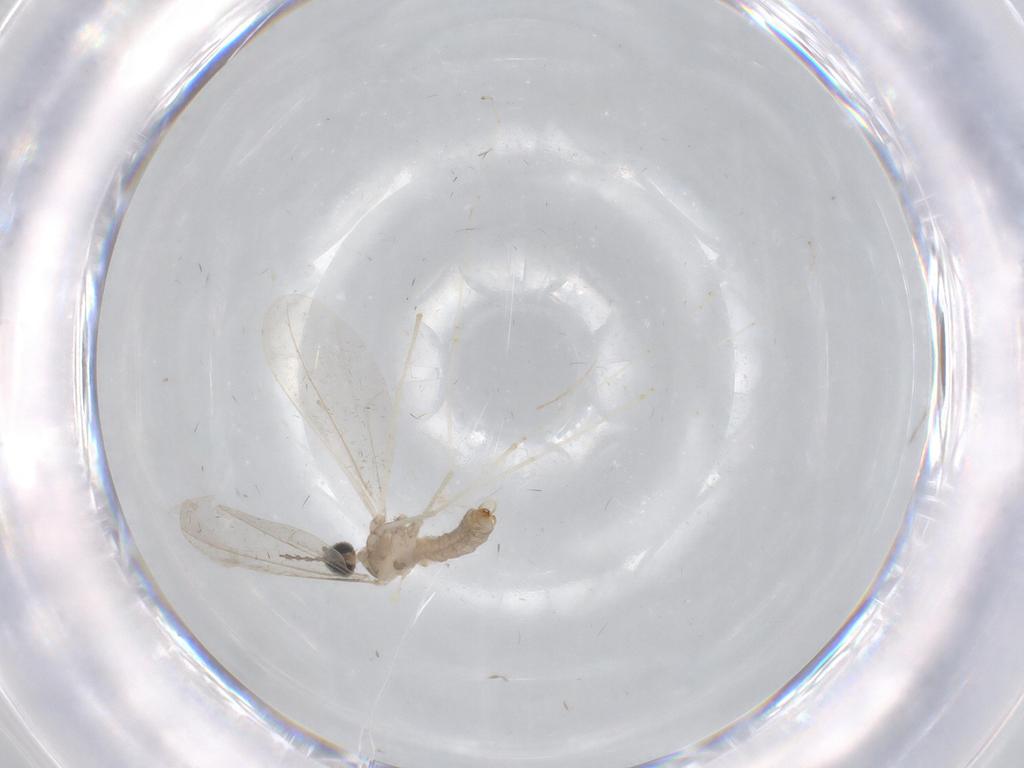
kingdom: Animalia
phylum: Arthropoda
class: Insecta
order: Diptera
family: Cecidomyiidae
